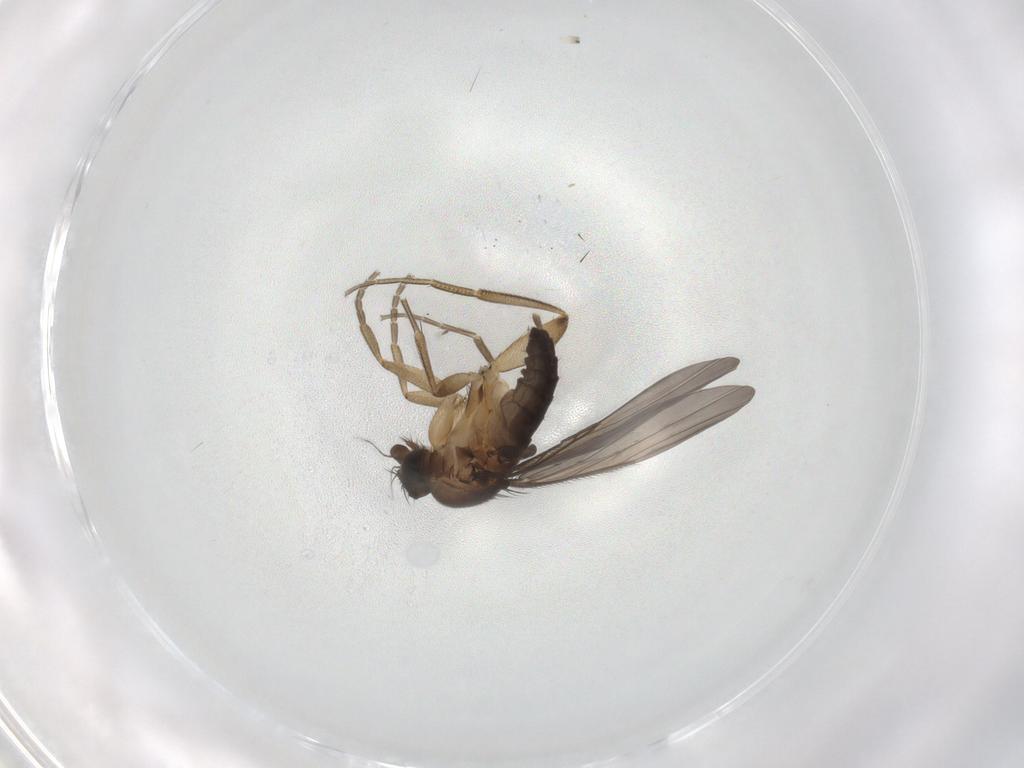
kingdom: Animalia
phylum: Arthropoda
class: Insecta
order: Diptera
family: Phoridae
